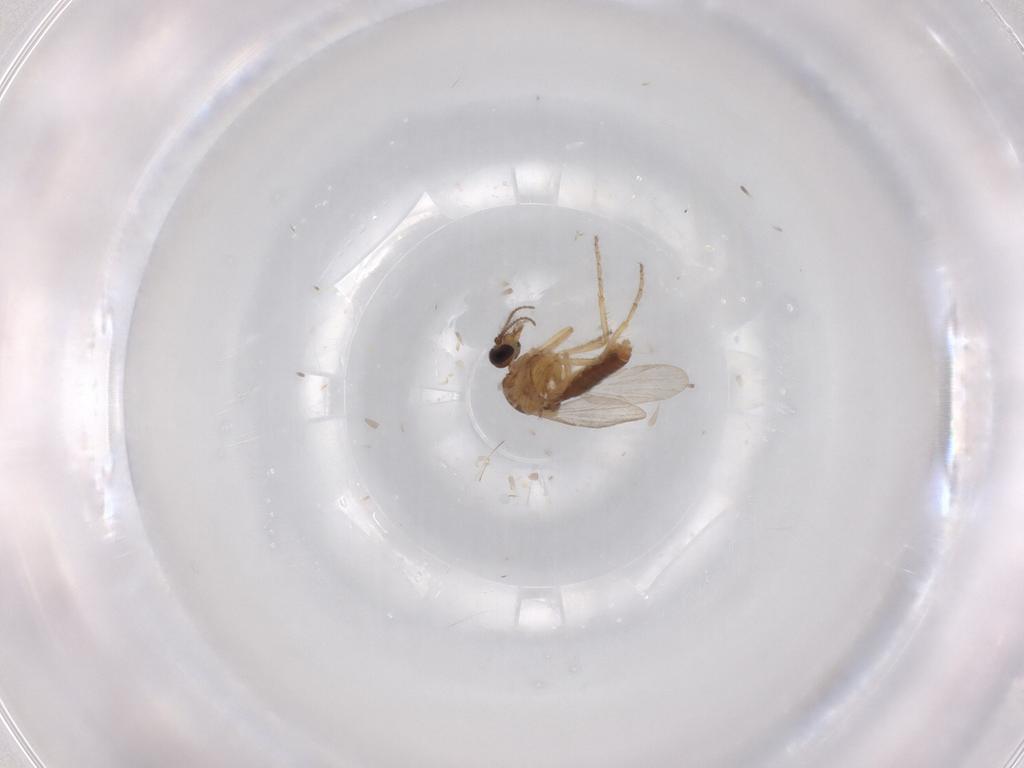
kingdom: Animalia
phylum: Arthropoda
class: Insecta
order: Diptera
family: Ceratopogonidae
